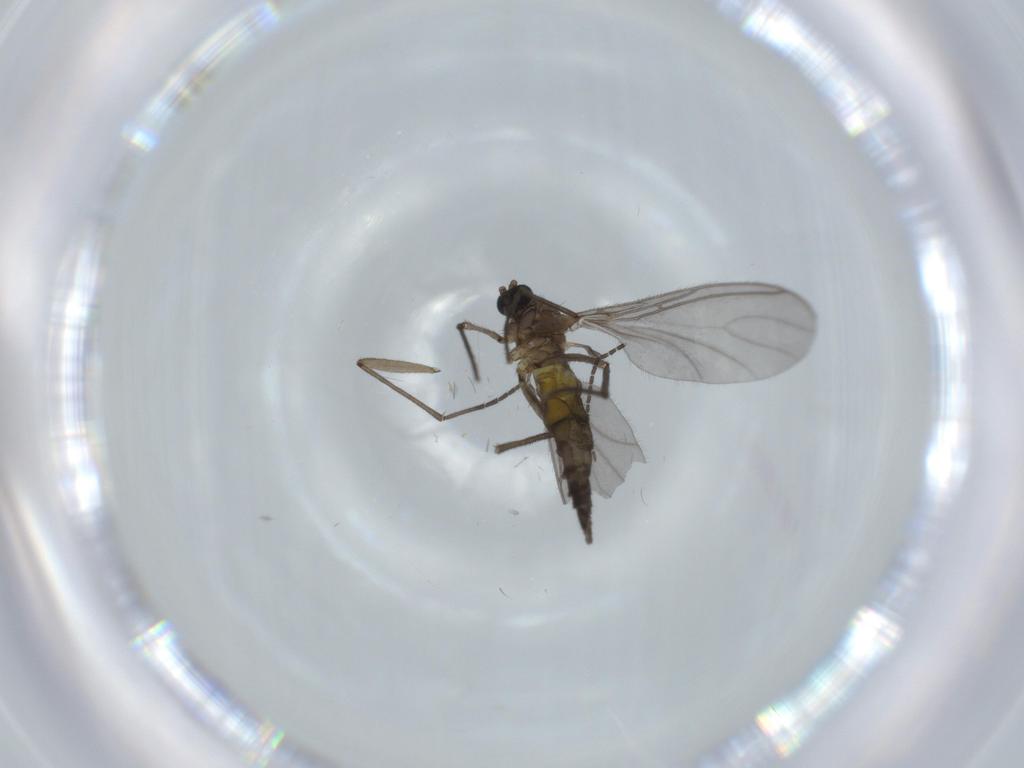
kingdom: Animalia
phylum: Arthropoda
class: Insecta
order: Diptera
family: Sciaridae
